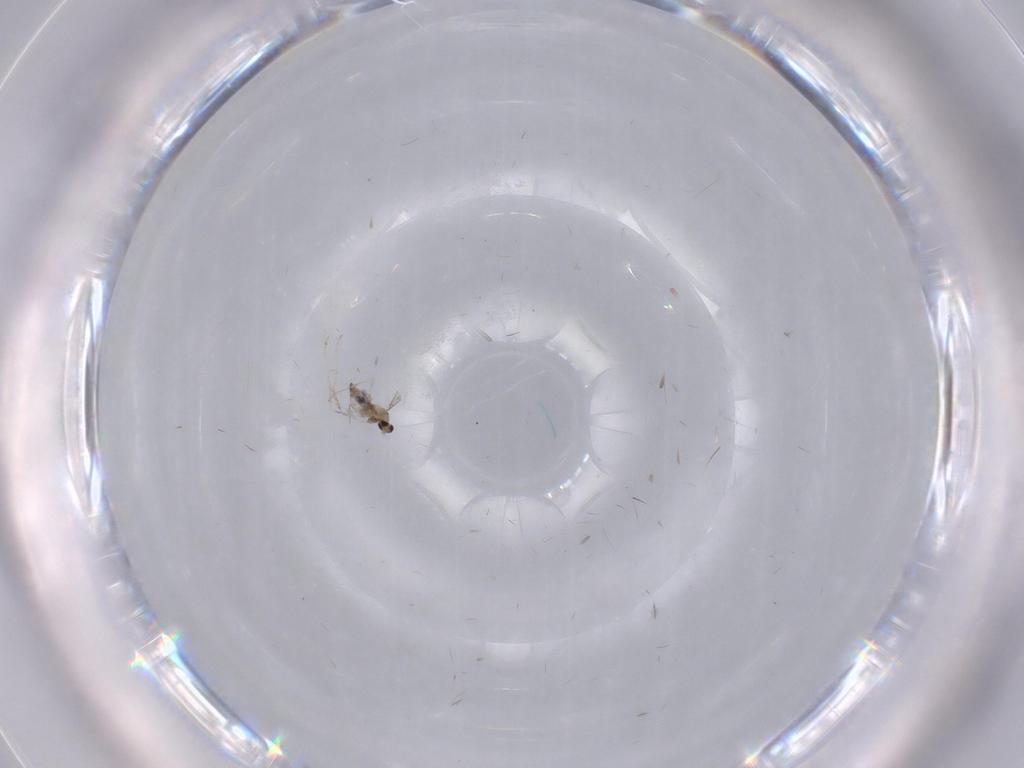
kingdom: Animalia
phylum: Arthropoda
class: Insecta
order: Diptera
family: Cecidomyiidae
